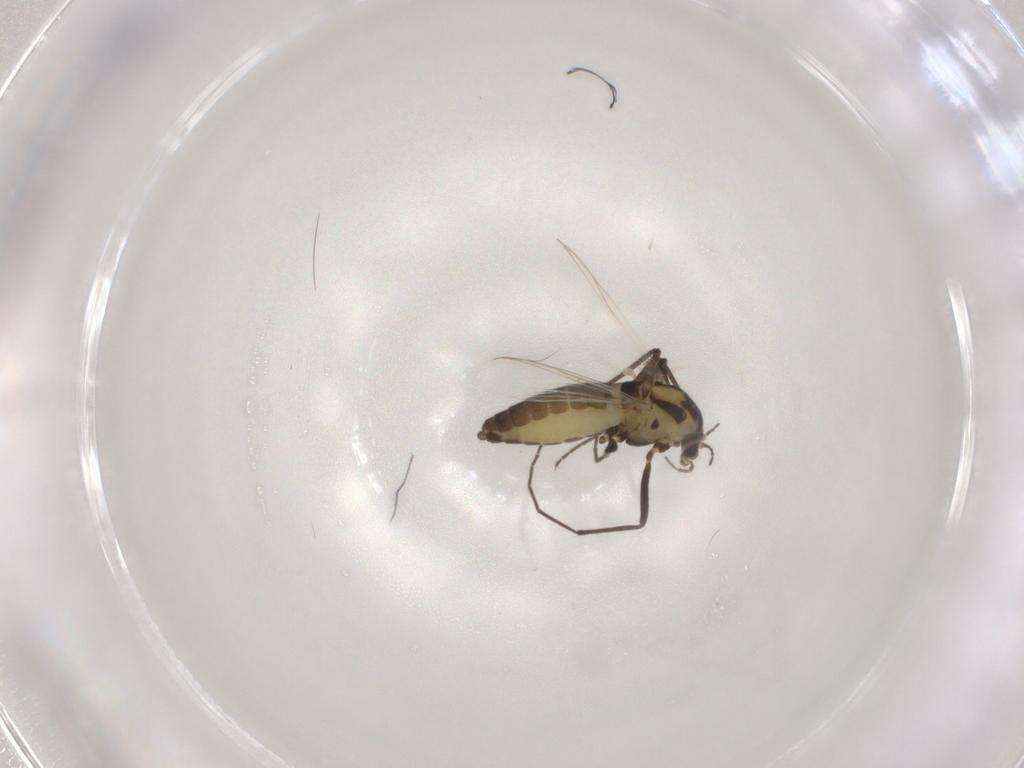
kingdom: Animalia
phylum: Arthropoda
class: Insecta
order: Diptera
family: Chironomidae
